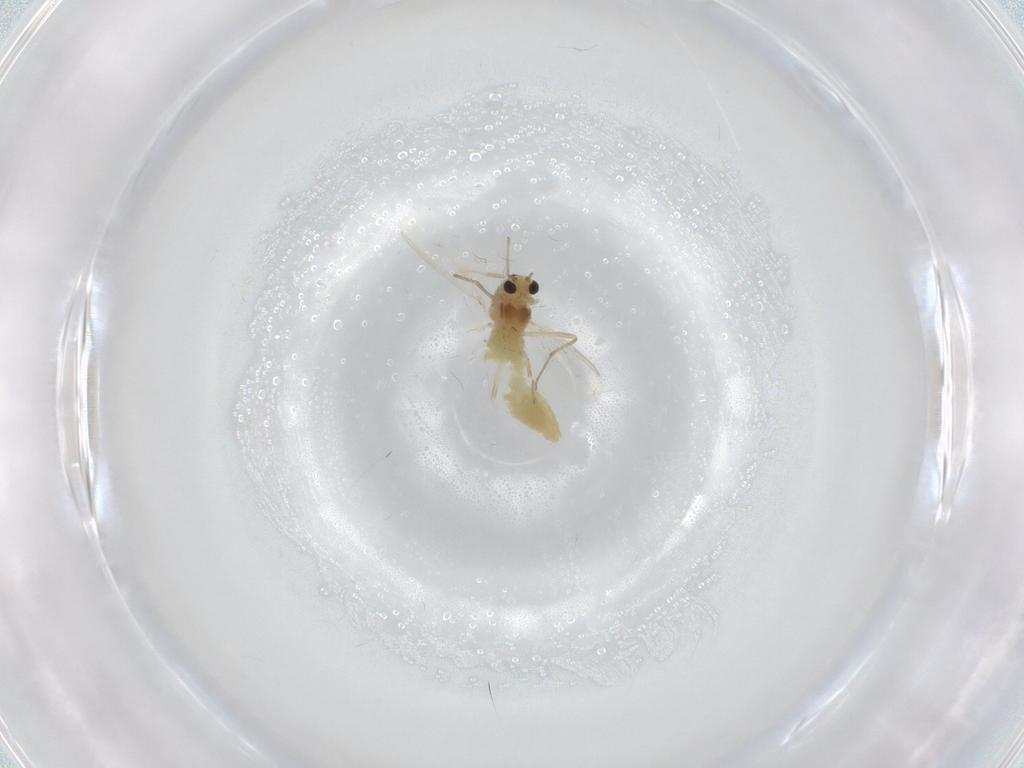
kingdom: Animalia
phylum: Arthropoda
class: Insecta
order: Diptera
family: Chironomidae
